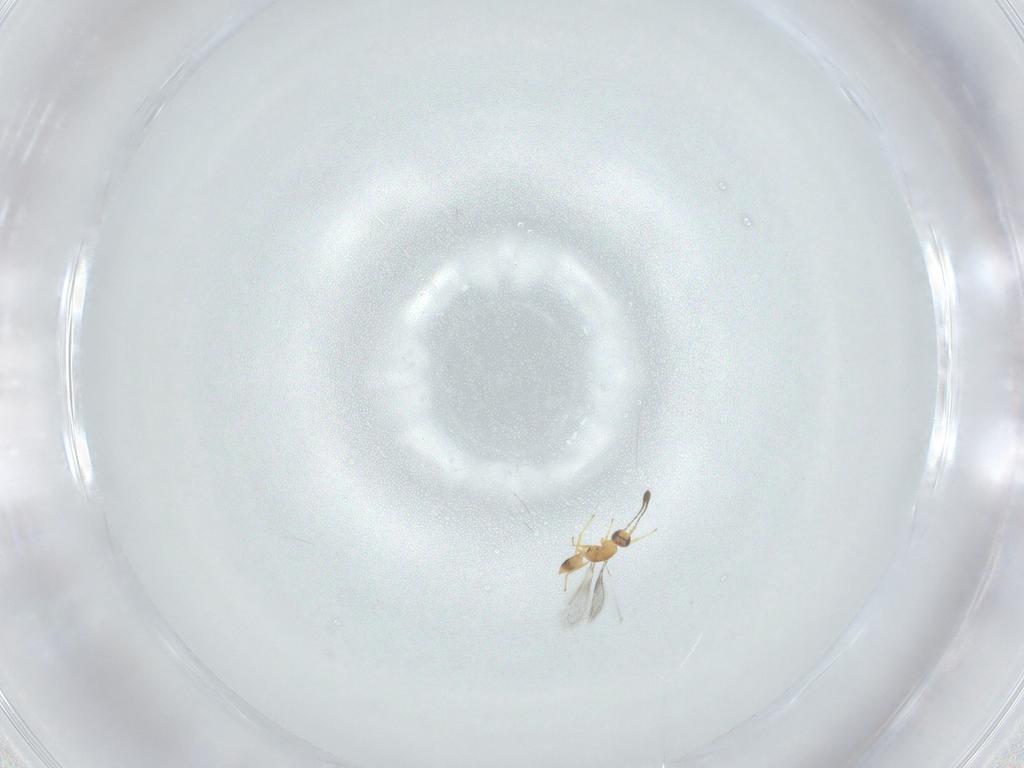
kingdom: Animalia
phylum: Arthropoda
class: Insecta
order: Hymenoptera
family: Mymaridae
